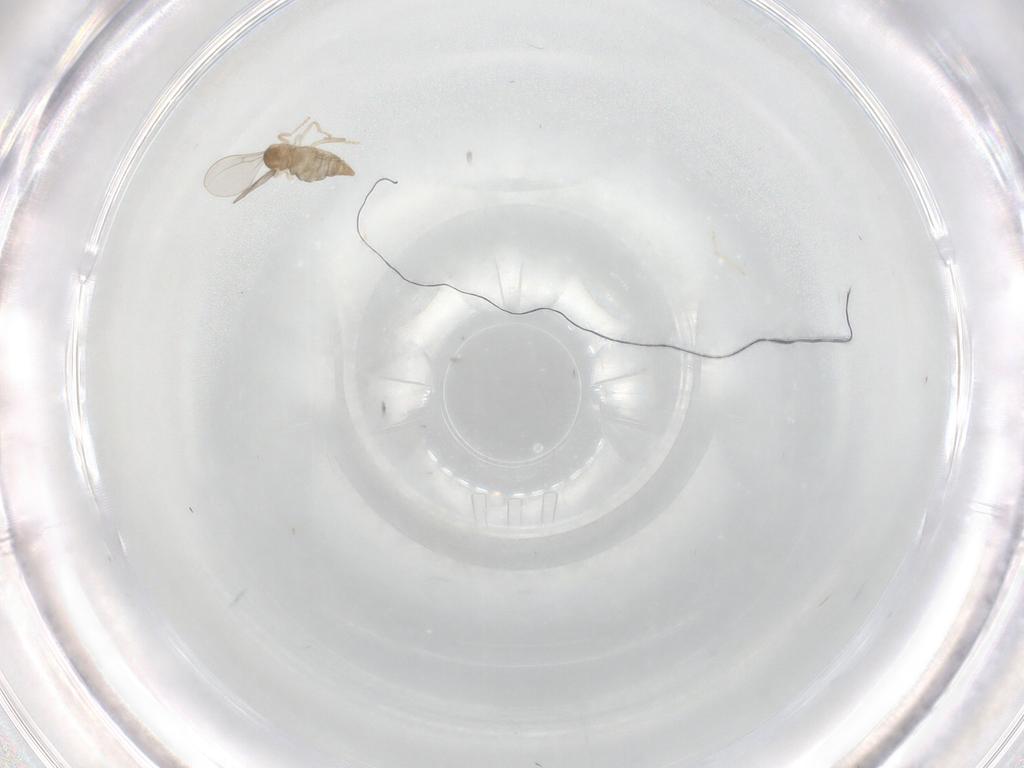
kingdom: Animalia
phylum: Arthropoda
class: Insecta
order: Diptera
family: Ceratopogonidae
